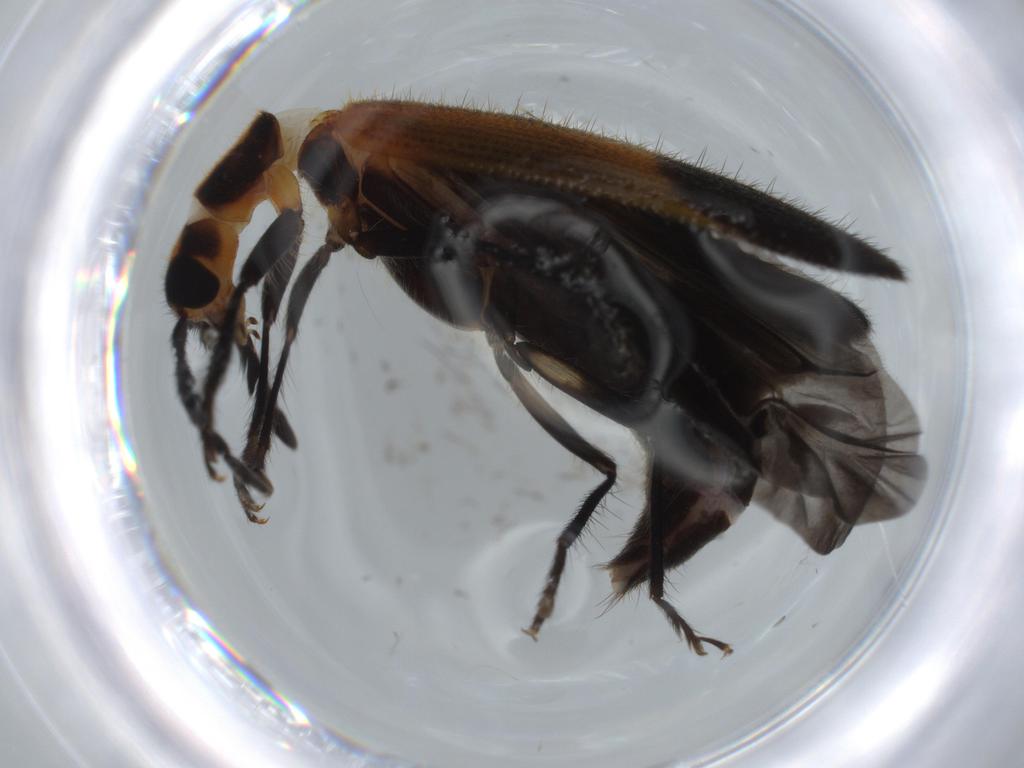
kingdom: Animalia
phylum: Arthropoda
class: Insecta
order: Coleoptera
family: Cleridae
